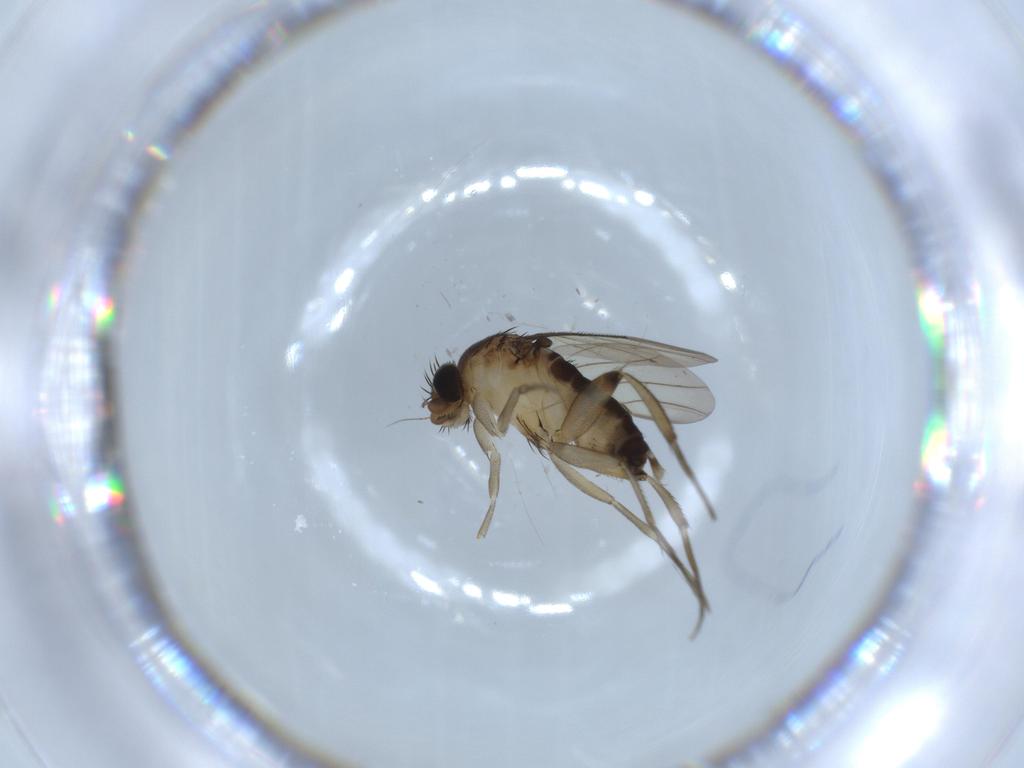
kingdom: Animalia
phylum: Arthropoda
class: Insecta
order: Diptera
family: Phoridae
